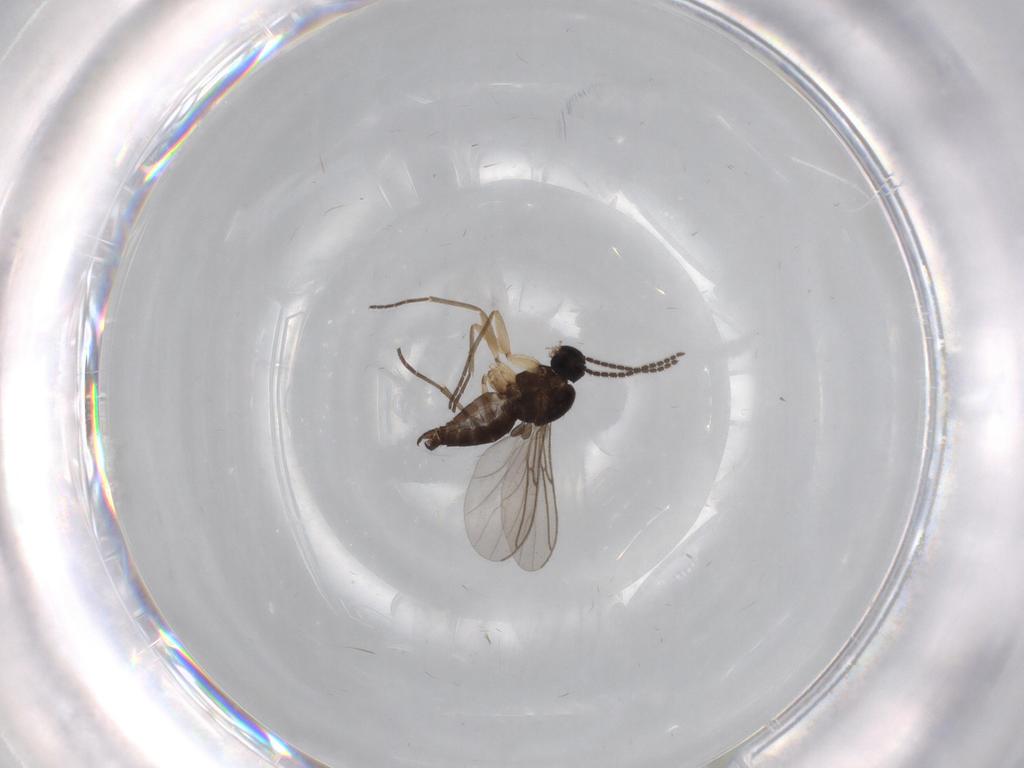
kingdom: Animalia
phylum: Arthropoda
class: Insecta
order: Diptera
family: Sciaridae
